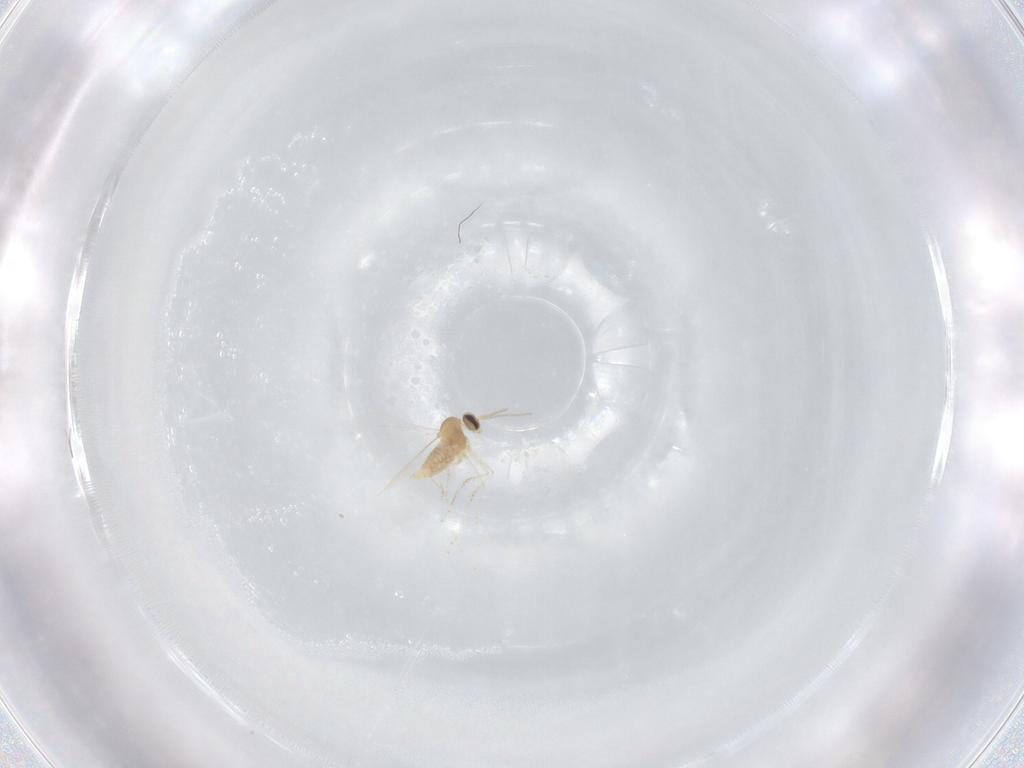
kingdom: Animalia
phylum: Arthropoda
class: Insecta
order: Diptera
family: Cecidomyiidae
